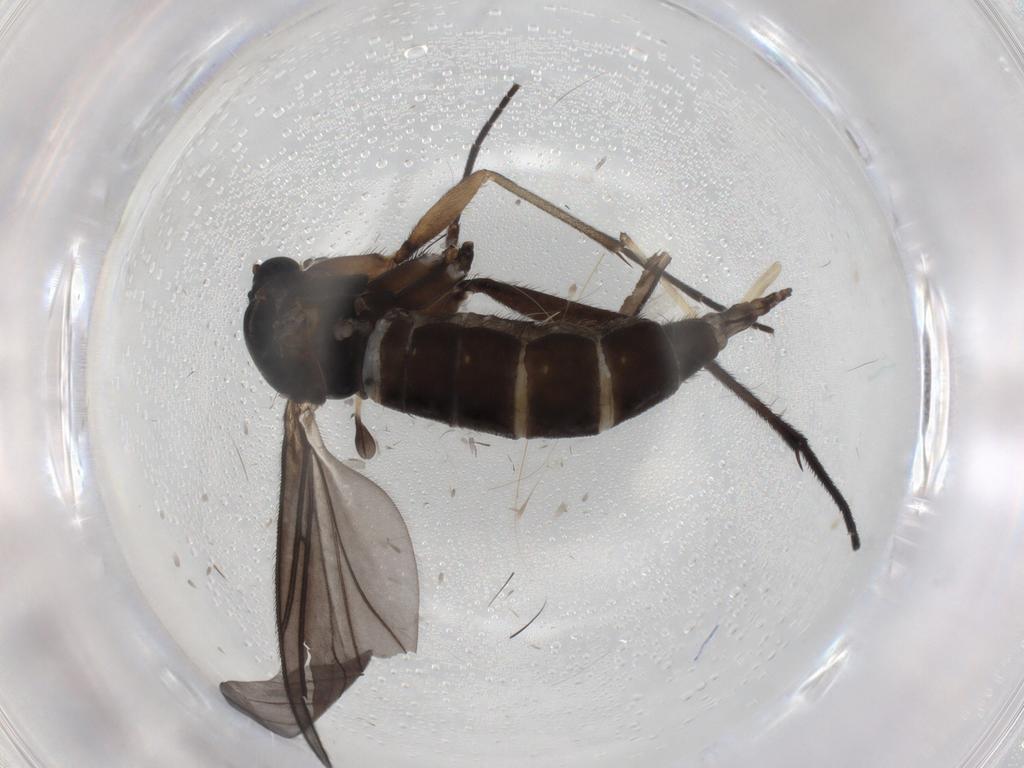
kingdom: Animalia
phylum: Arthropoda
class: Insecta
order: Diptera
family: Sciaridae
